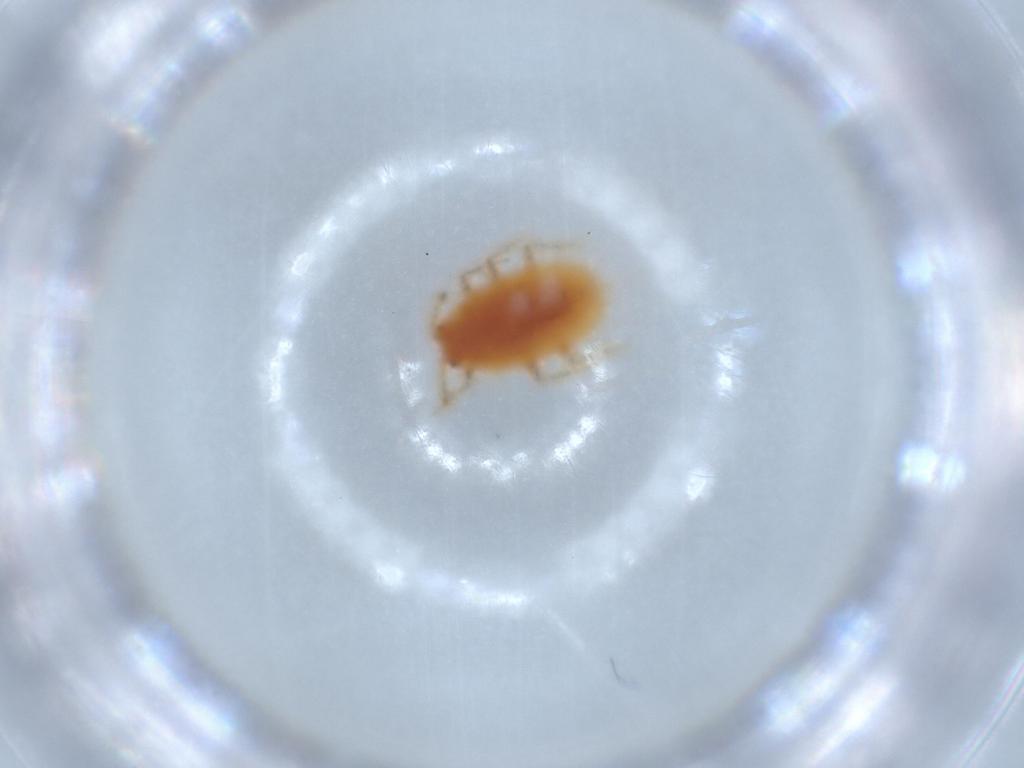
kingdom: Animalia
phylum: Arthropoda
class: Insecta
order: Hemiptera
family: Coccoidea_incertae_sedis
